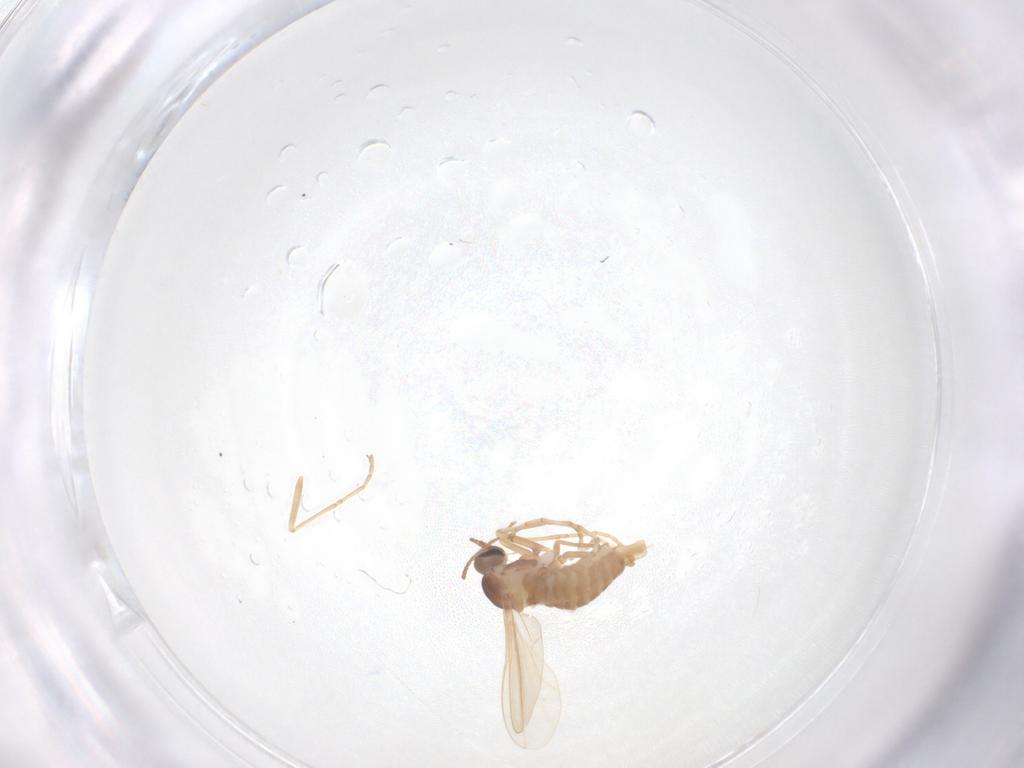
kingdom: Animalia
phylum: Arthropoda
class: Insecta
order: Diptera
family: Cecidomyiidae
